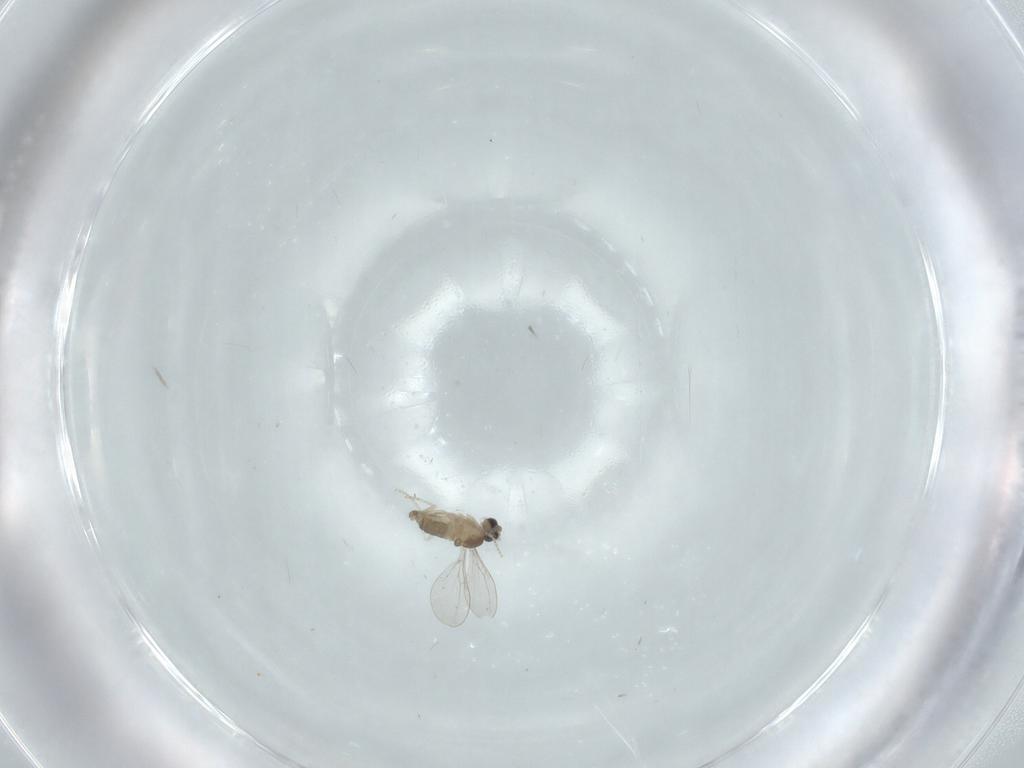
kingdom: Animalia
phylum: Arthropoda
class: Insecta
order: Diptera
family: Cecidomyiidae
